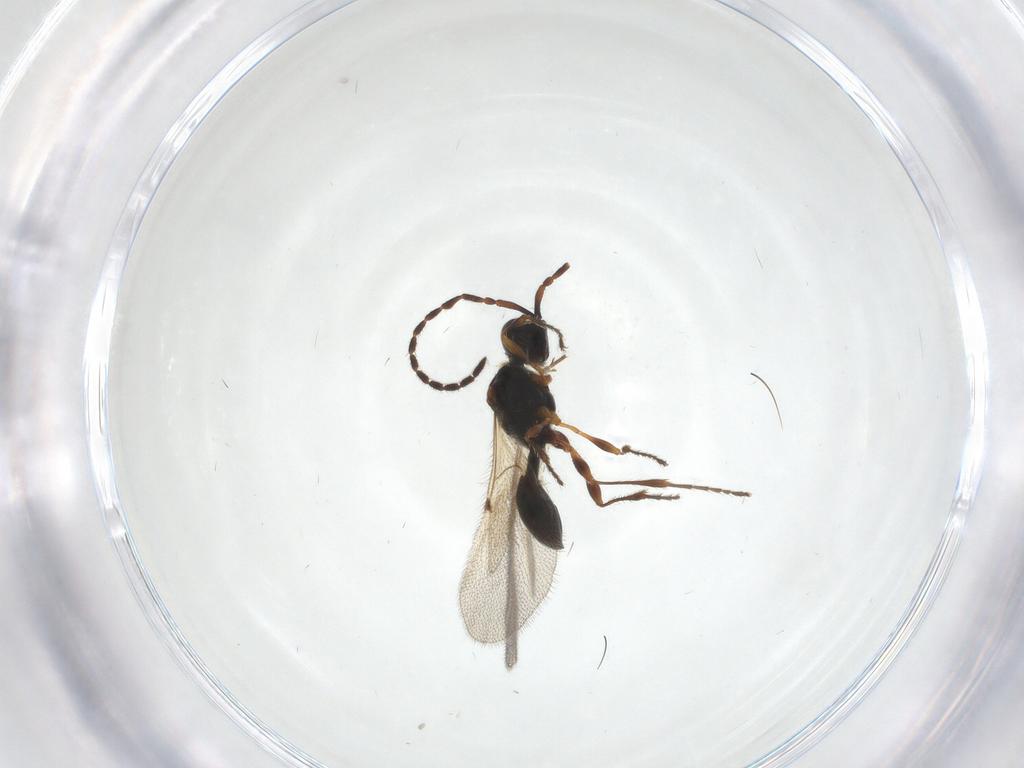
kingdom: Animalia
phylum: Arthropoda
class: Insecta
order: Hymenoptera
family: Diapriidae
